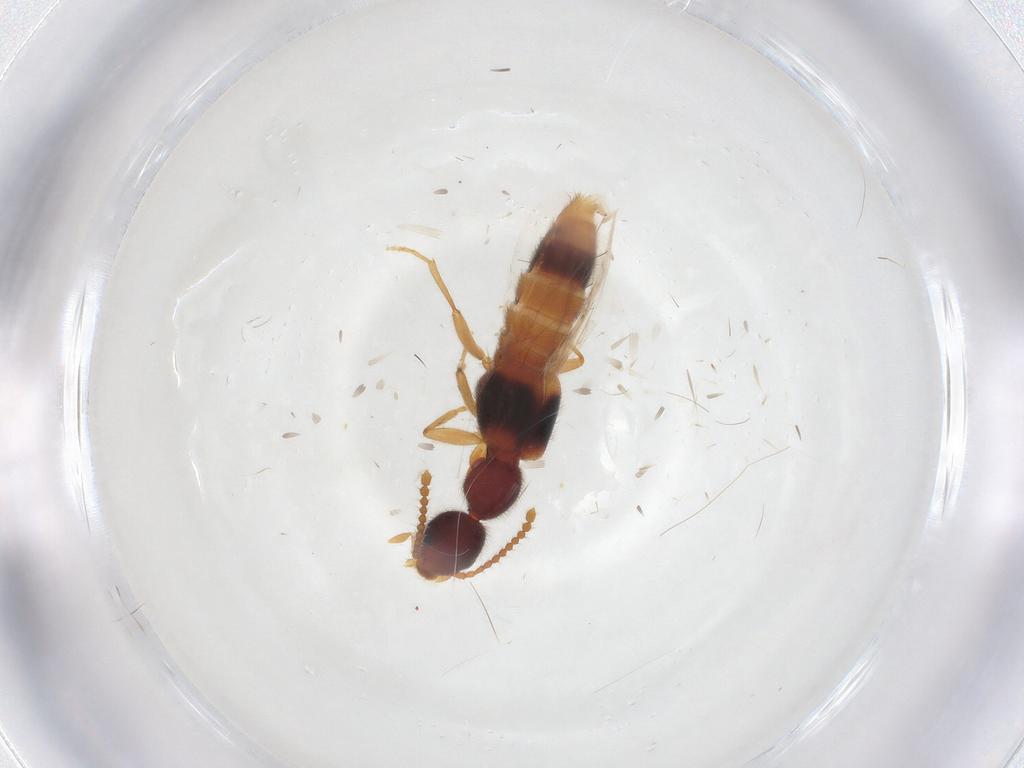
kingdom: Animalia
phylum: Arthropoda
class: Insecta
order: Coleoptera
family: Staphylinidae
